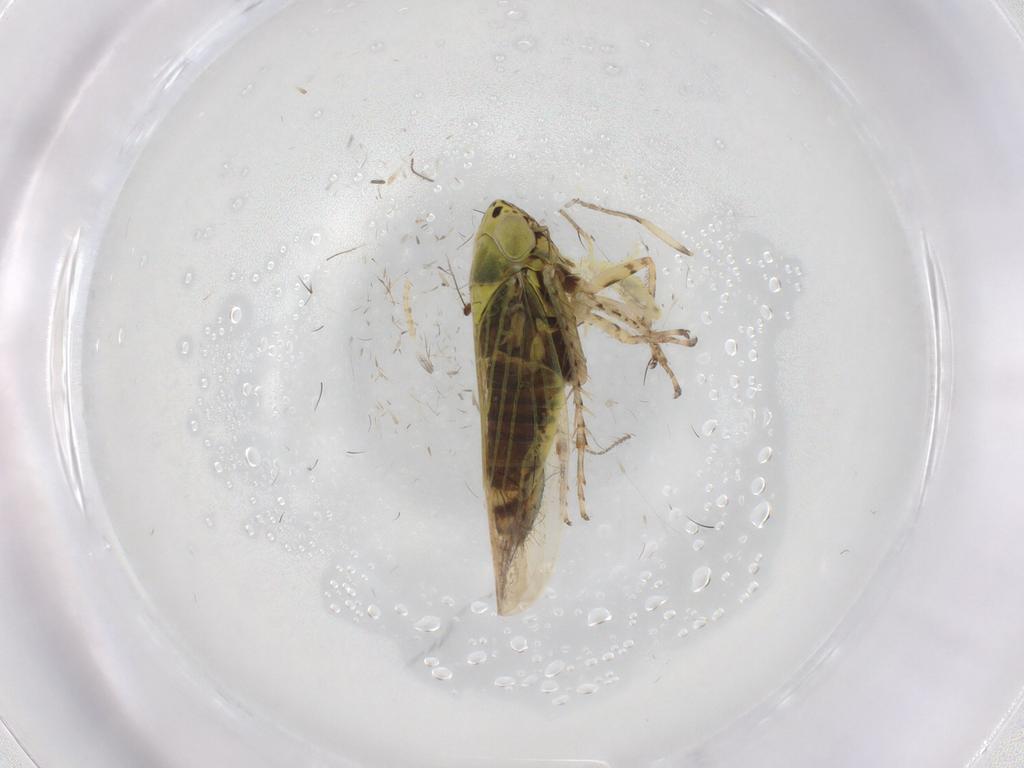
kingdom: Animalia
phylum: Arthropoda
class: Insecta
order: Hemiptera
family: Cicadellidae
